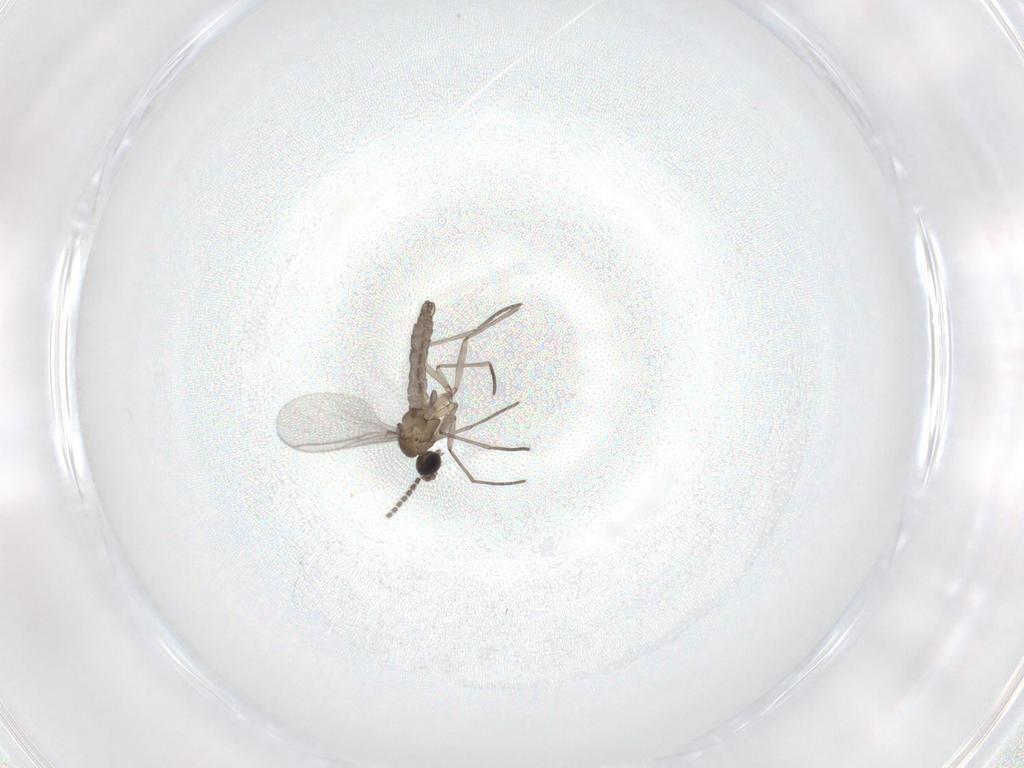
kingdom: Animalia
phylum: Arthropoda
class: Insecta
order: Diptera
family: Dolichopodidae
